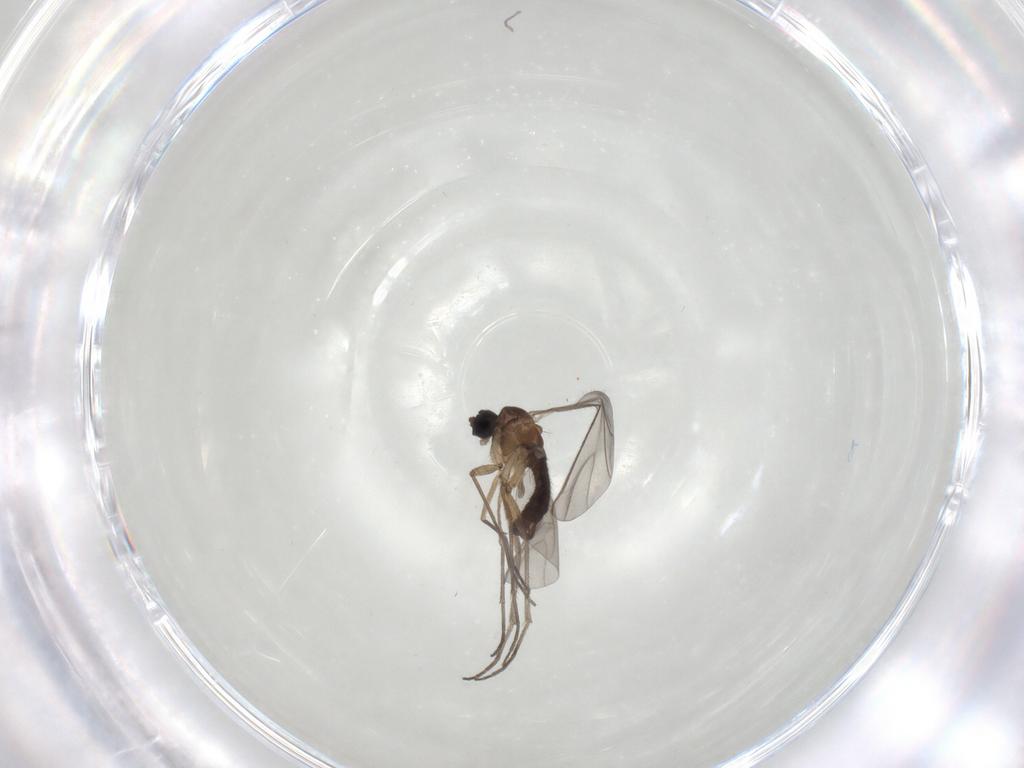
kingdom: Animalia
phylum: Arthropoda
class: Insecta
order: Diptera
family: Sciaridae
